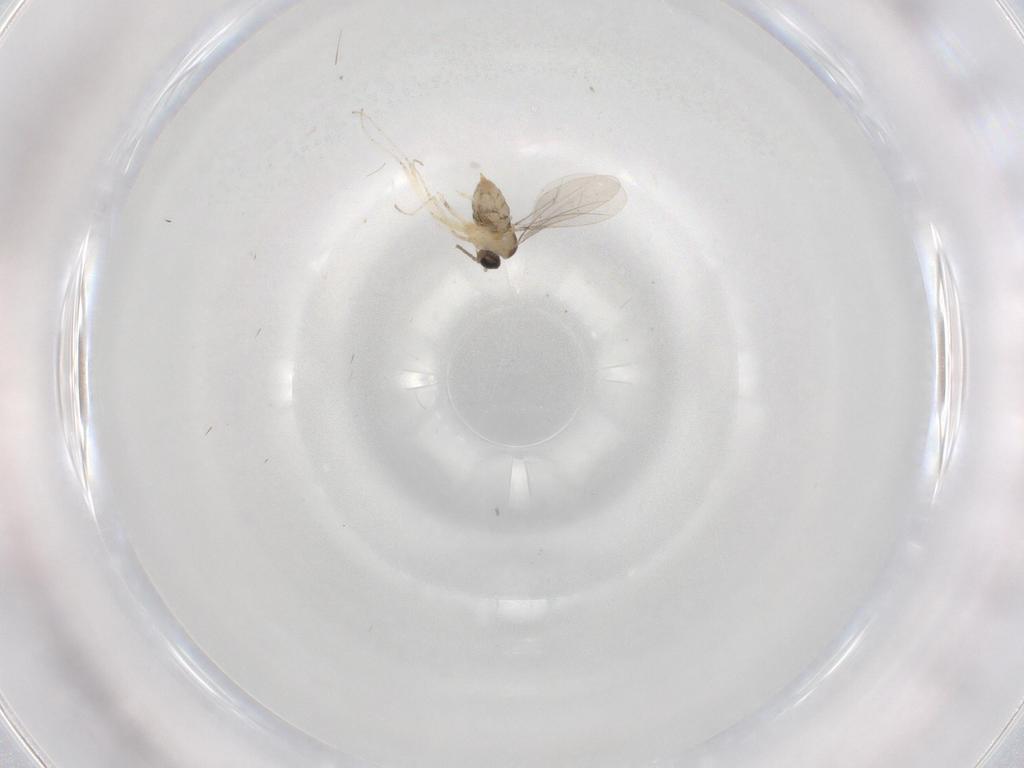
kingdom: Animalia
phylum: Arthropoda
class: Insecta
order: Diptera
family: Cecidomyiidae
